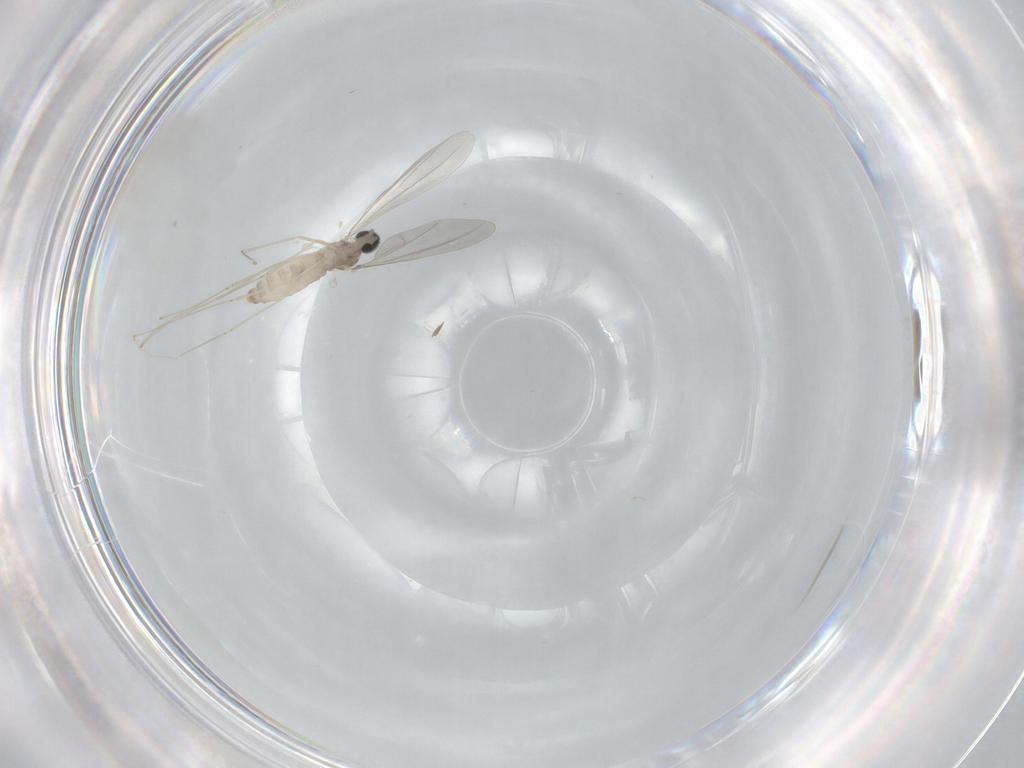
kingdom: Animalia
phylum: Arthropoda
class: Insecta
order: Diptera
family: Cecidomyiidae
